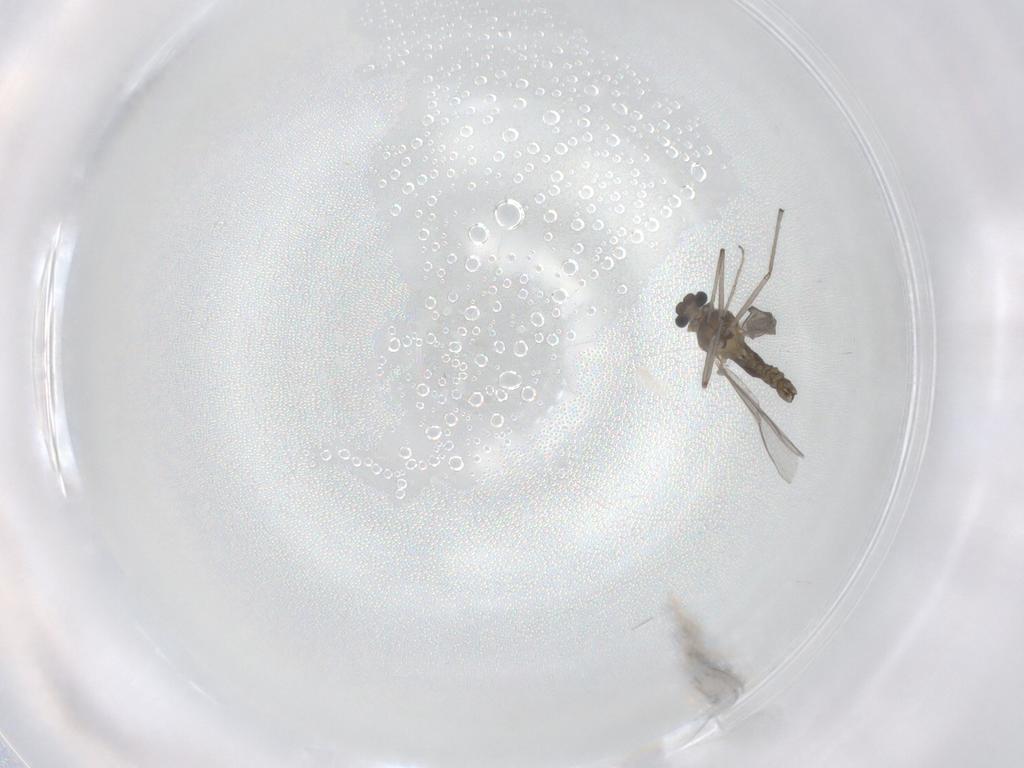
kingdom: Animalia
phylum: Arthropoda
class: Insecta
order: Diptera
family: Chironomidae
